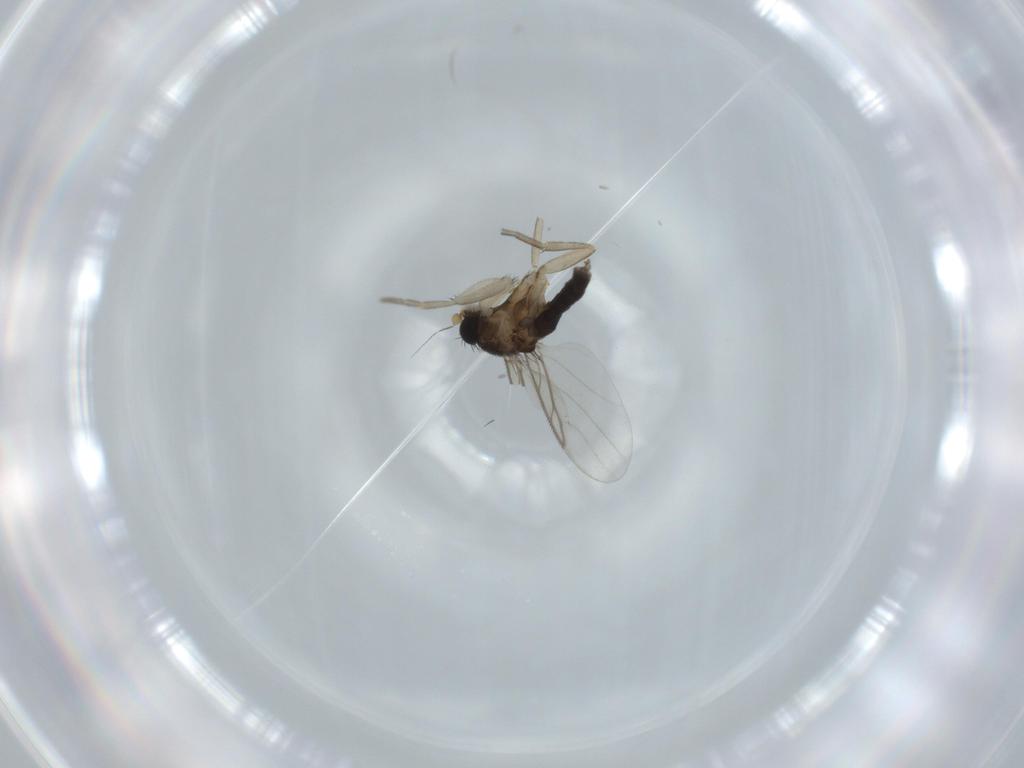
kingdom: Animalia
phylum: Arthropoda
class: Insecta
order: Diptera
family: Phoridae
